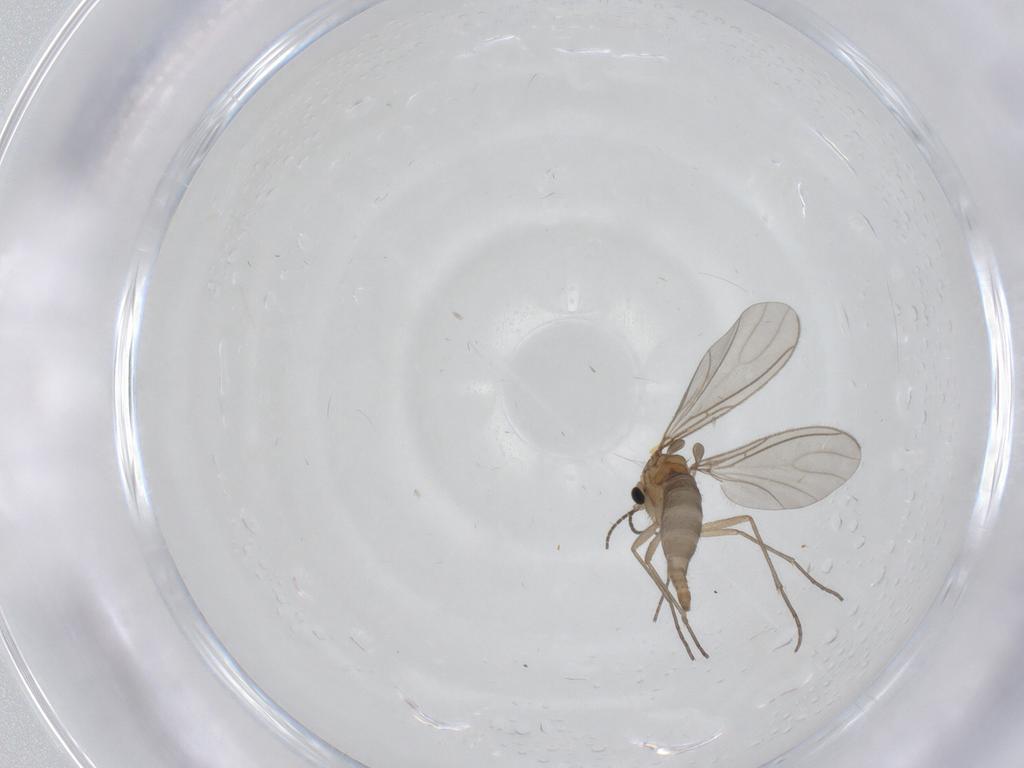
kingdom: Animalia
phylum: Arthropoda
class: Insecta
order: Diptera
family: Sciaridae
